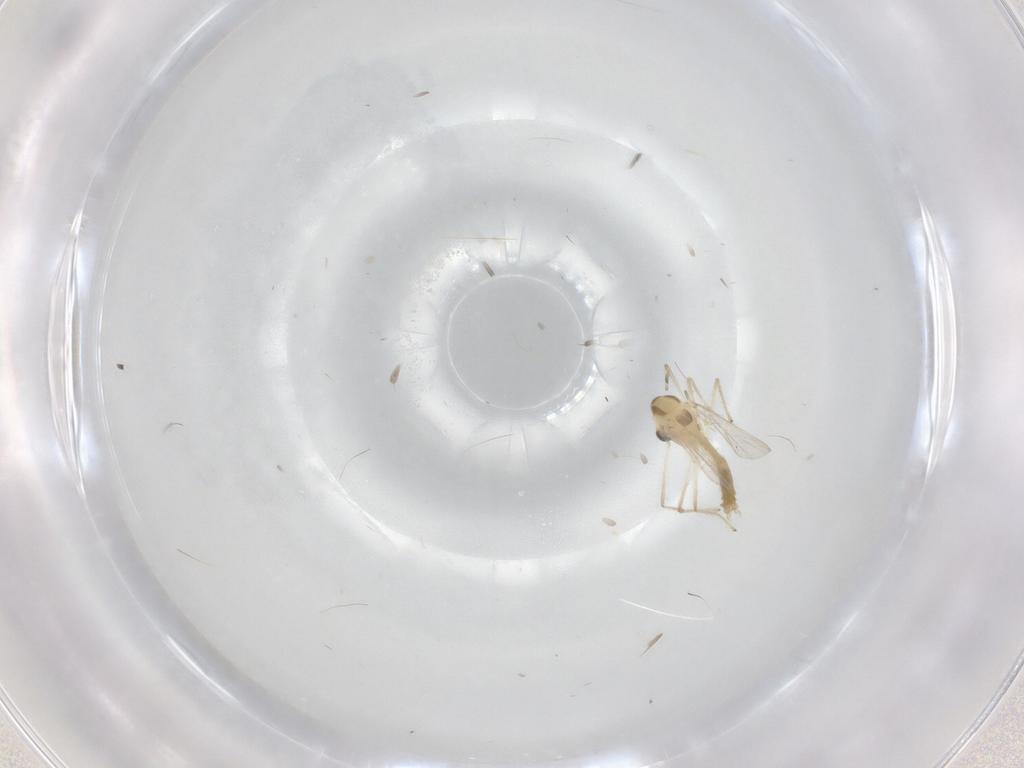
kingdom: Animalia
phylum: Arthropoda
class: Insecta
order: Diptera
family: Chironomidae
